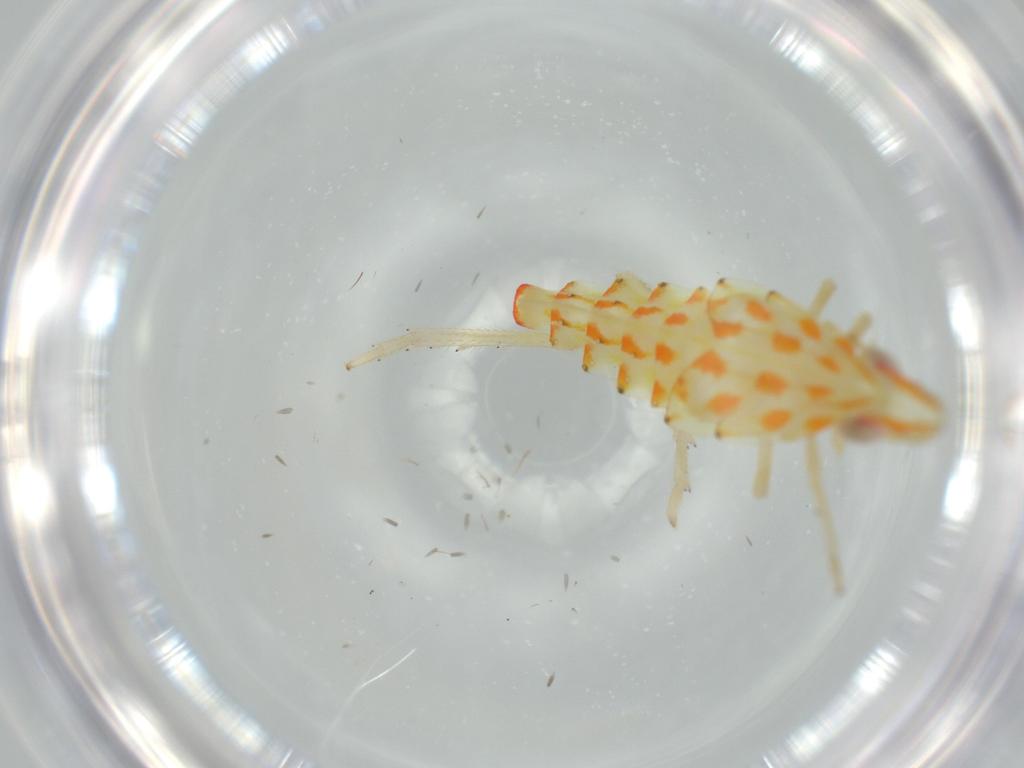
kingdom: Animalia
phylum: Arthropoda
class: Insecta
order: Hemiptera
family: Tropiduchidae
